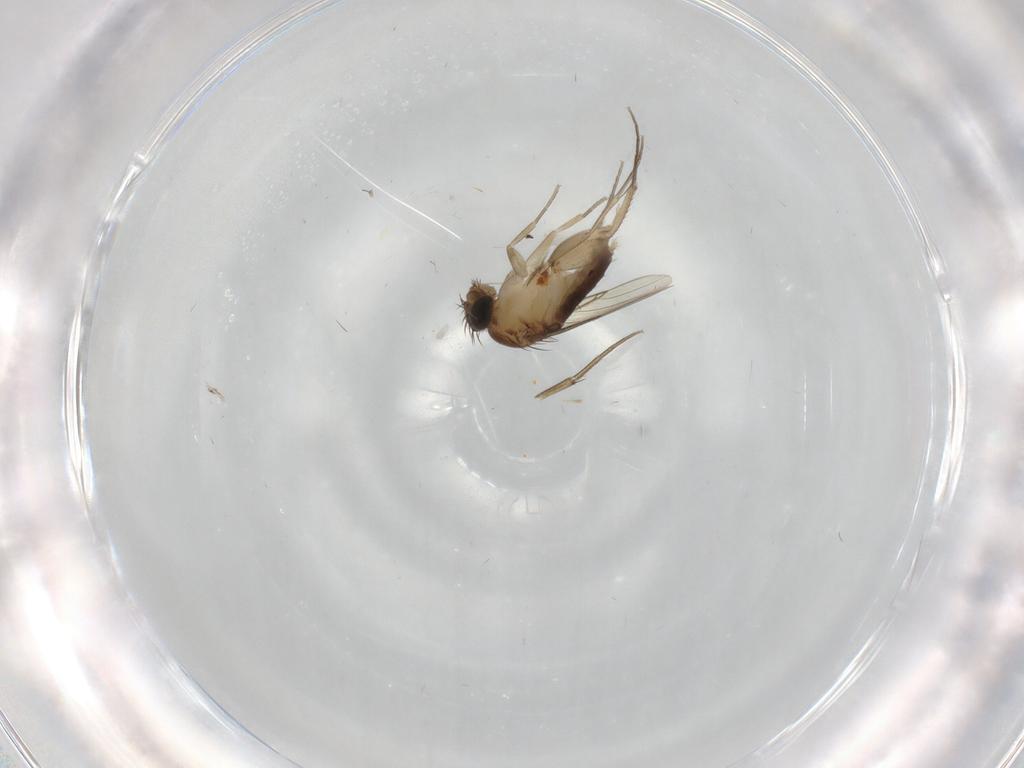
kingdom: Animalia
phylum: Arthropoda
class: Insecta
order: Diptera
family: Phoridae
